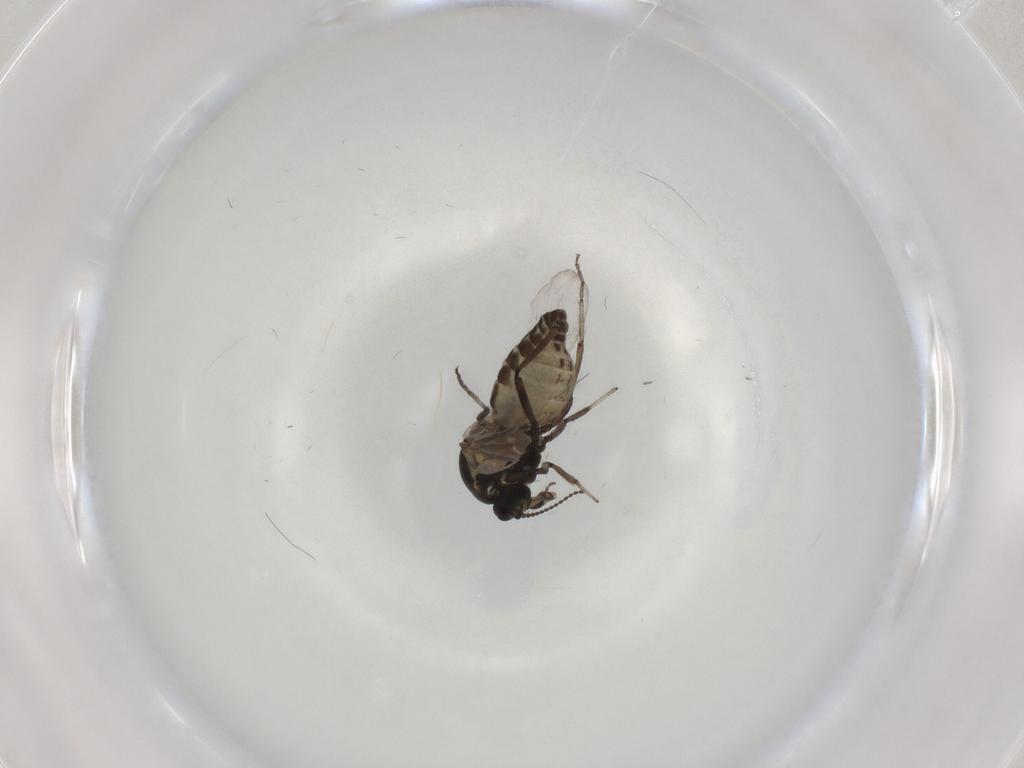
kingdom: Animalia
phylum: Arthropoda
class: Insecta
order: Diptera
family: Ceratopogonidae
